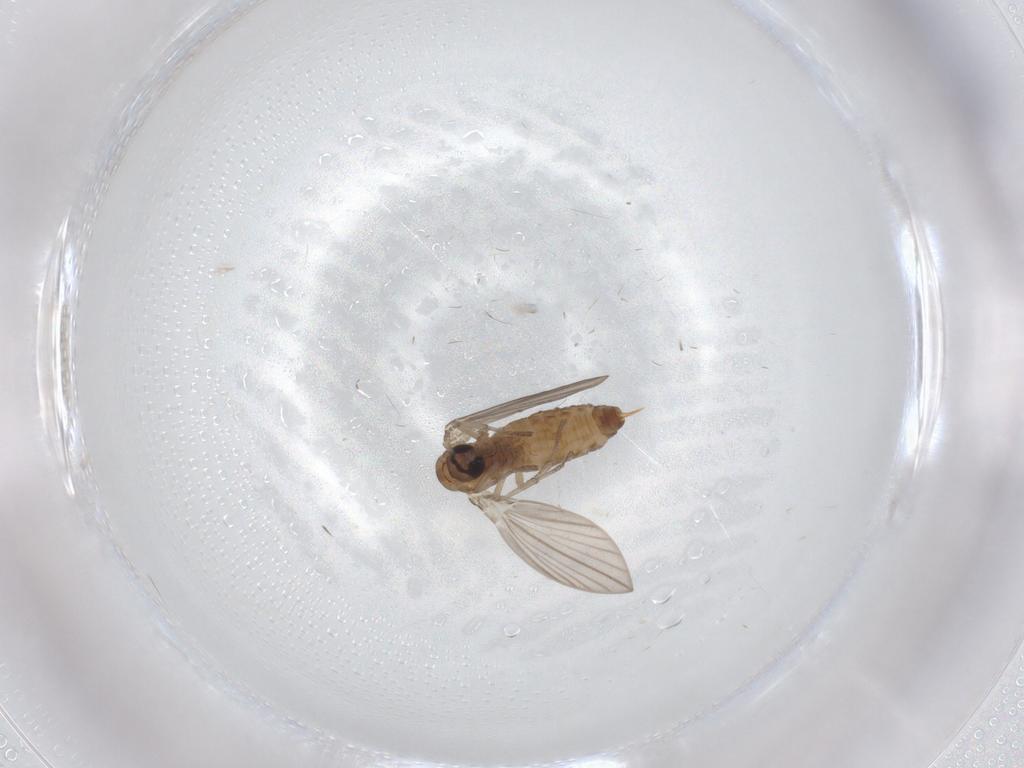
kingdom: Animalia
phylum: Arthropoda
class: Insecta
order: Diptera
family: Psychodidae
